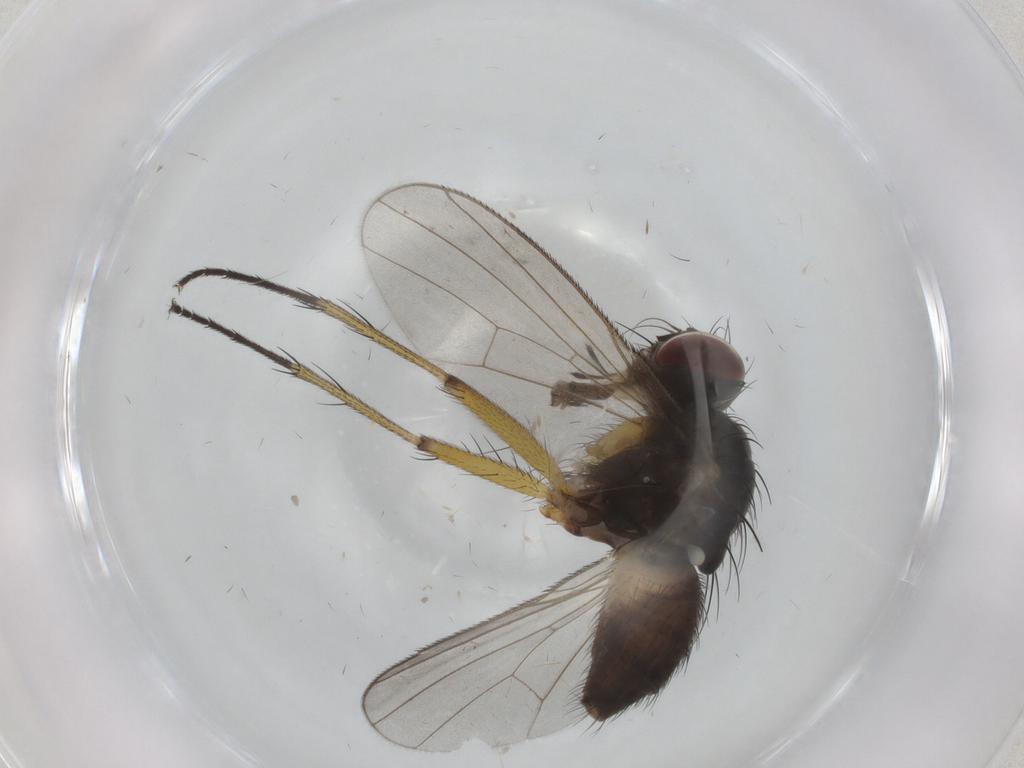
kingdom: Animalia
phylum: Arthropoda
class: Insecta
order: Diptera
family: Muscidae
